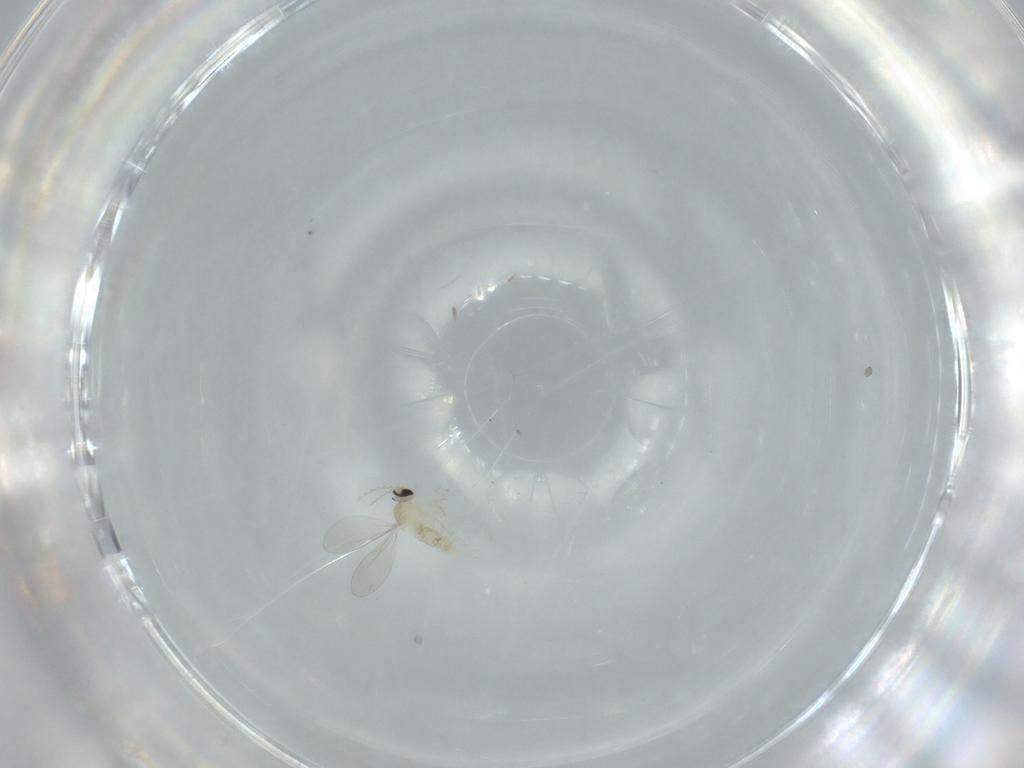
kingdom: Animalia
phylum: Arthropoda
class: Insecta
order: Diptera
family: Cecidomyiidae
